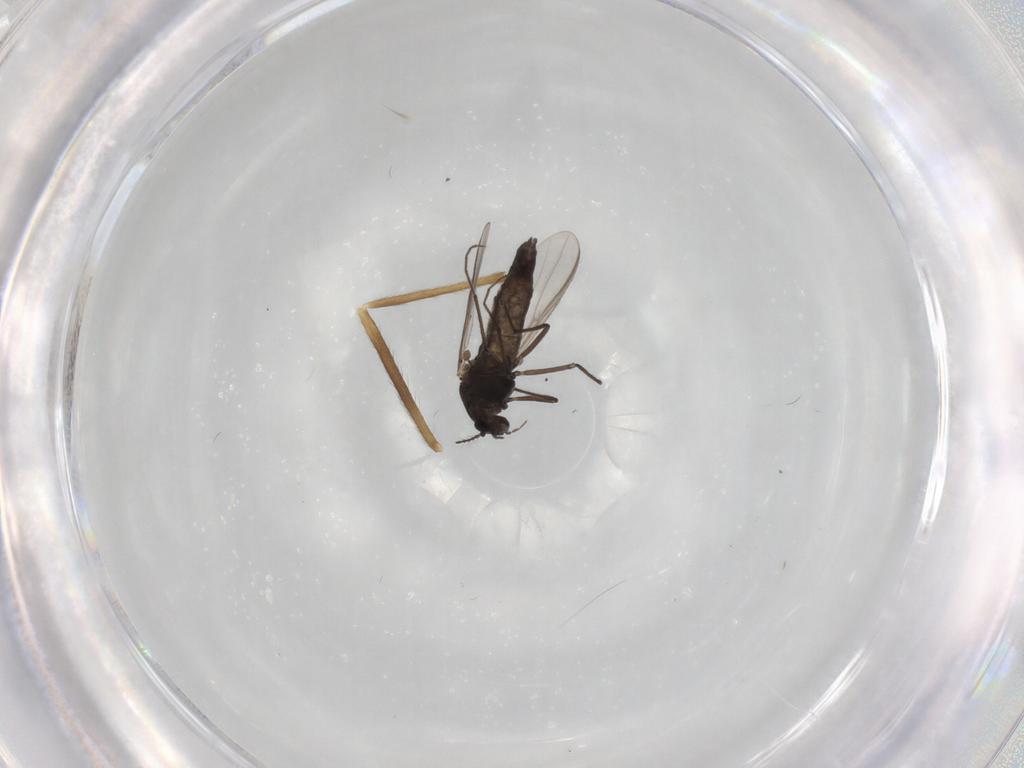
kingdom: Animalia
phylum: Arthropoda
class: Insecta
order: Diptera
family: Chironomidae
